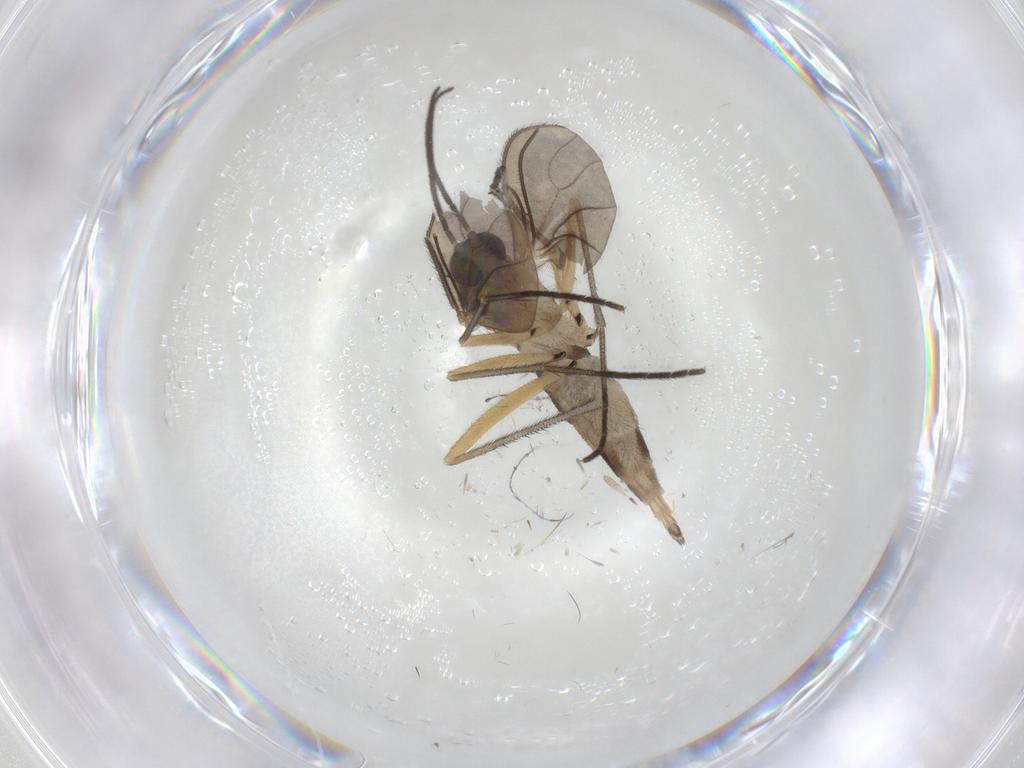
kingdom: Animalia
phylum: Arthropoda
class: Insecta
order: Diptera
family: Sciaridae
